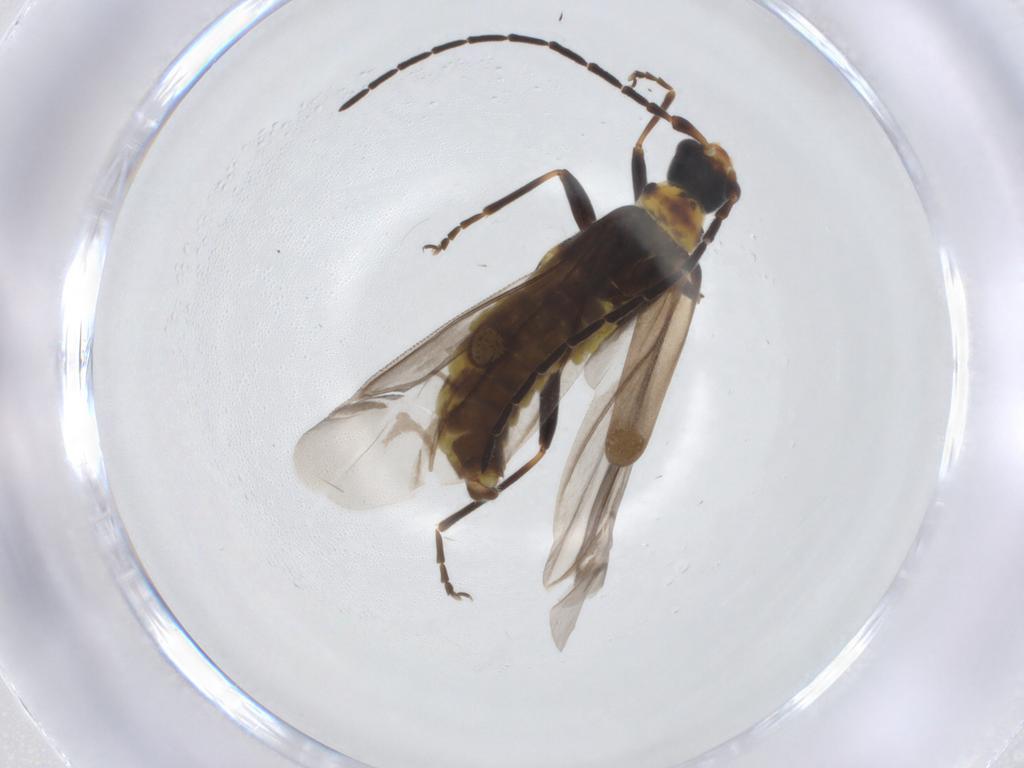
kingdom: Animalia
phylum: Arthropoda
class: Insecta
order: Coleoptera
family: Cantharidae
